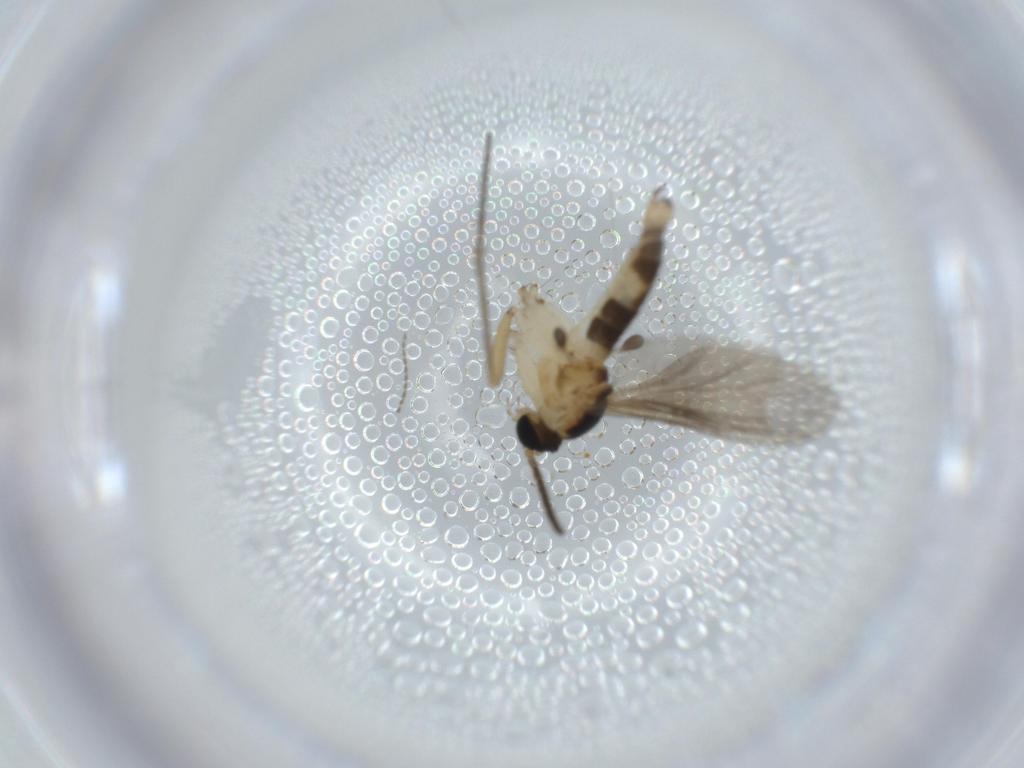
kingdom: Animalia
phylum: Arthropoda
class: Insecta
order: Diptera
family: Sciaridae
